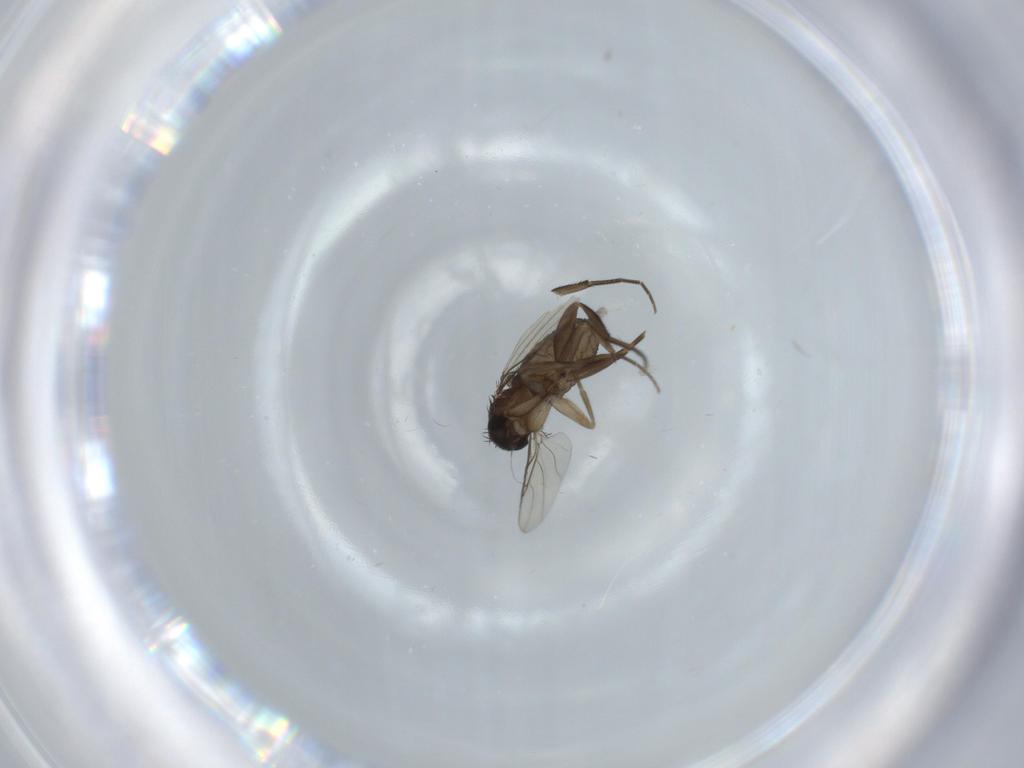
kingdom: Animalia
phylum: Arthropoda
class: Insecta
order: Diptera
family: Phoridae
